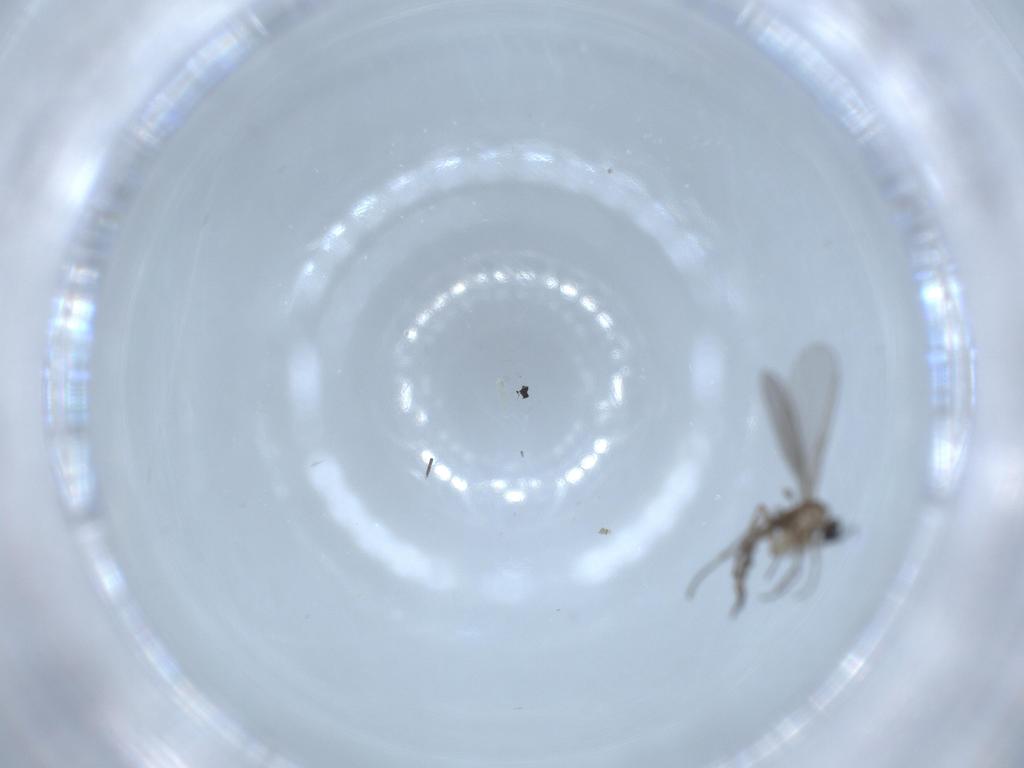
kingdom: Animalia
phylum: Arthropoda
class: Insecta
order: Diptera
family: Sciaridae
